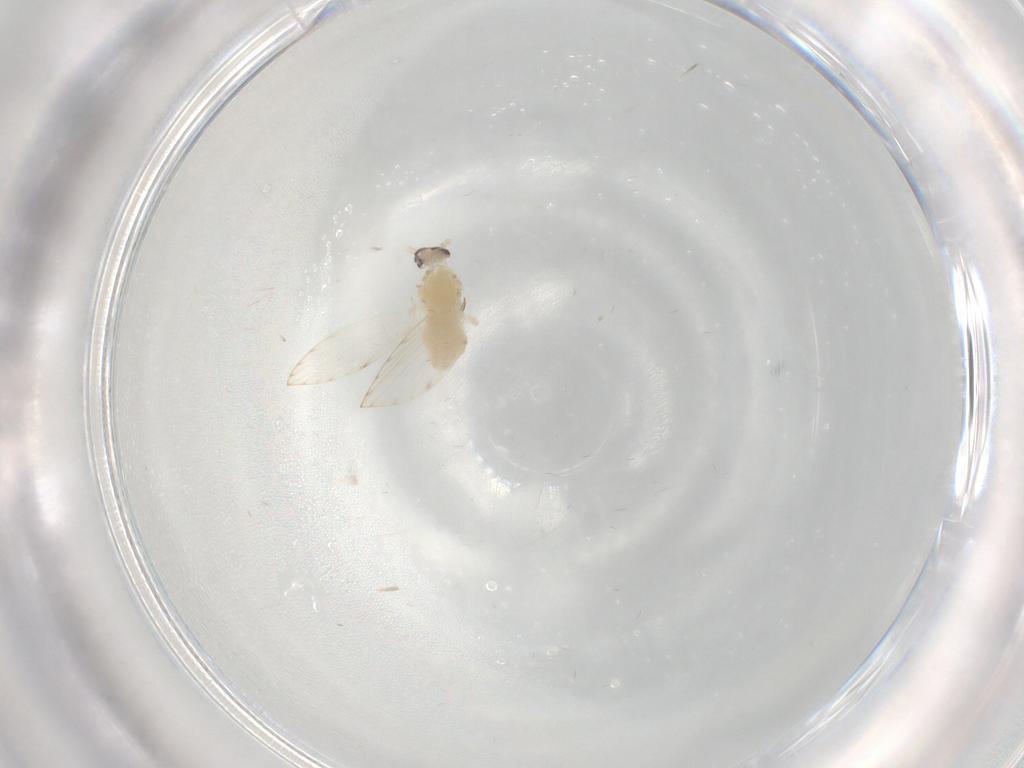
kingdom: Animalia
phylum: Arthropoda
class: Insecta
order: Diptera
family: Psychodidae
